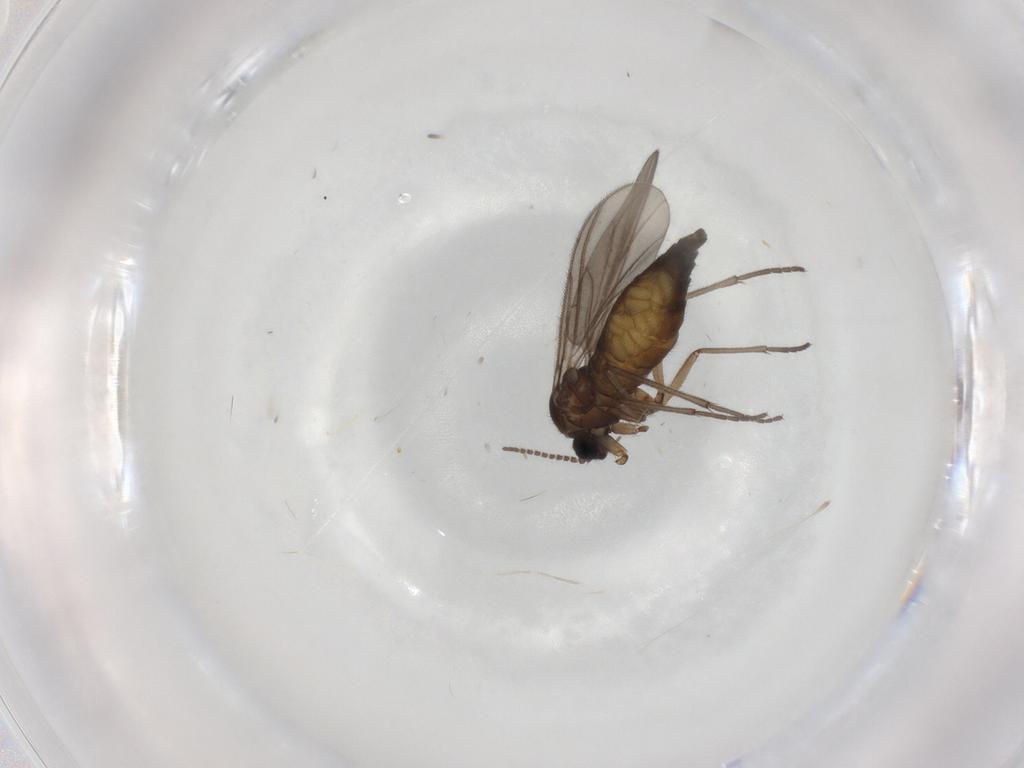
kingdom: Animalia
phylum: Arthropoda
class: Insecta
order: Diptera
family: Sciaridae
